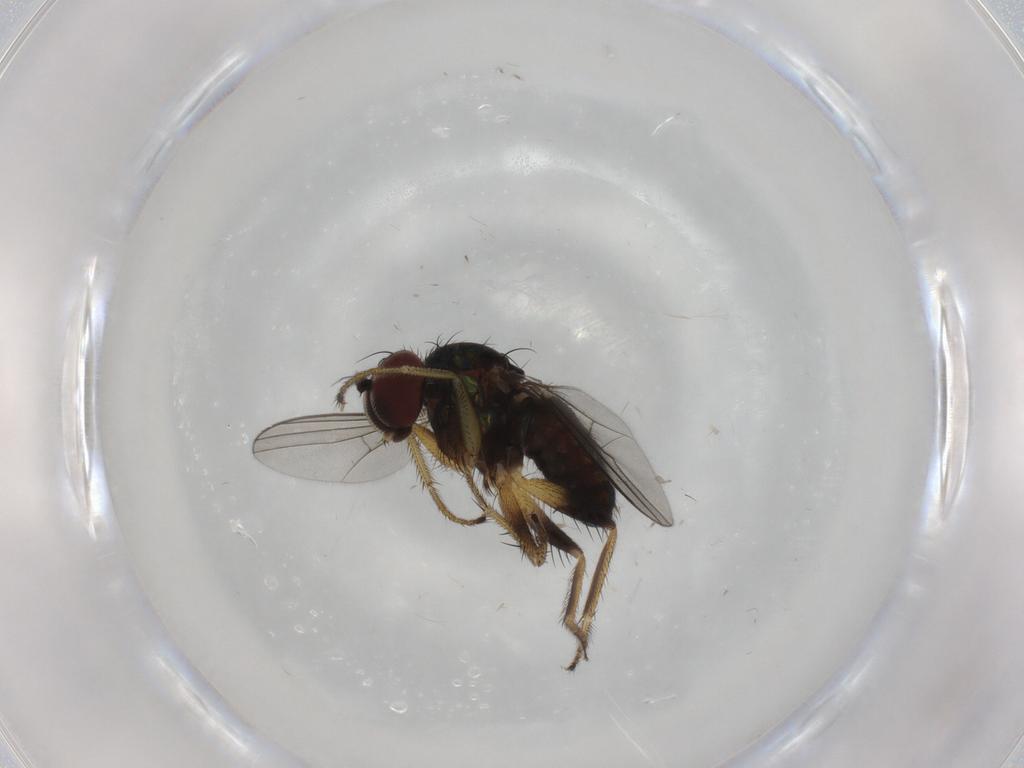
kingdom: Animalia
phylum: Arthropoda
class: Insecta
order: Diptera
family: Dolichopodidae
